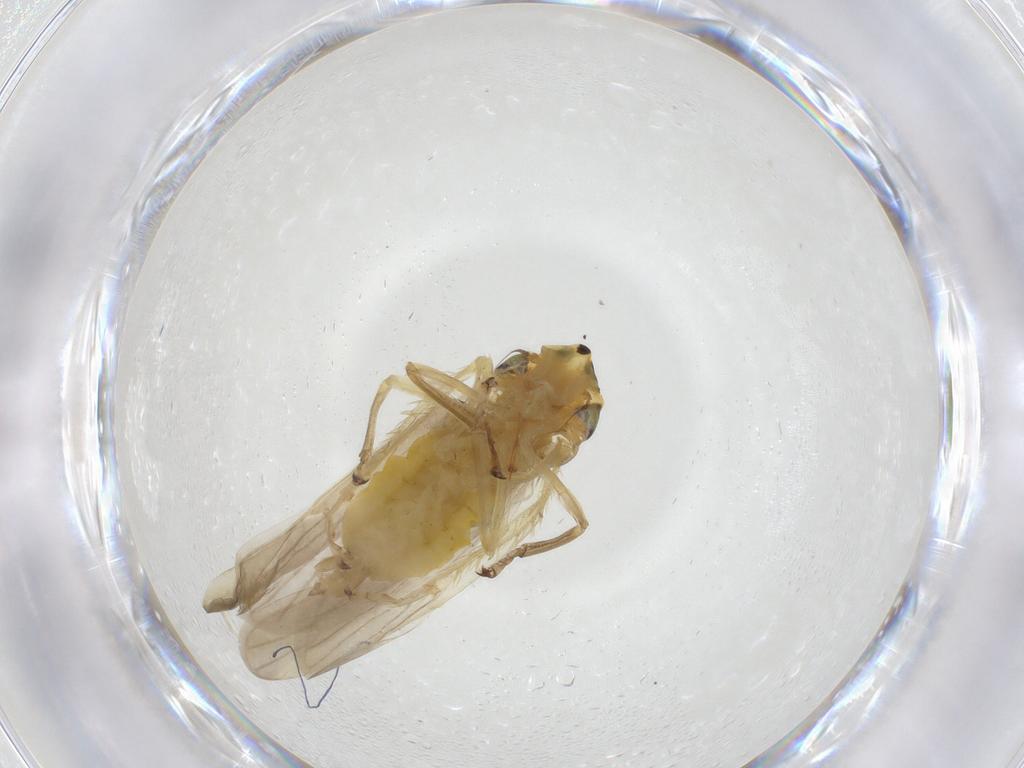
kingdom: Animalia
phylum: Arthropoda
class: Insecta
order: Hemiptera
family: Cicadellidae
